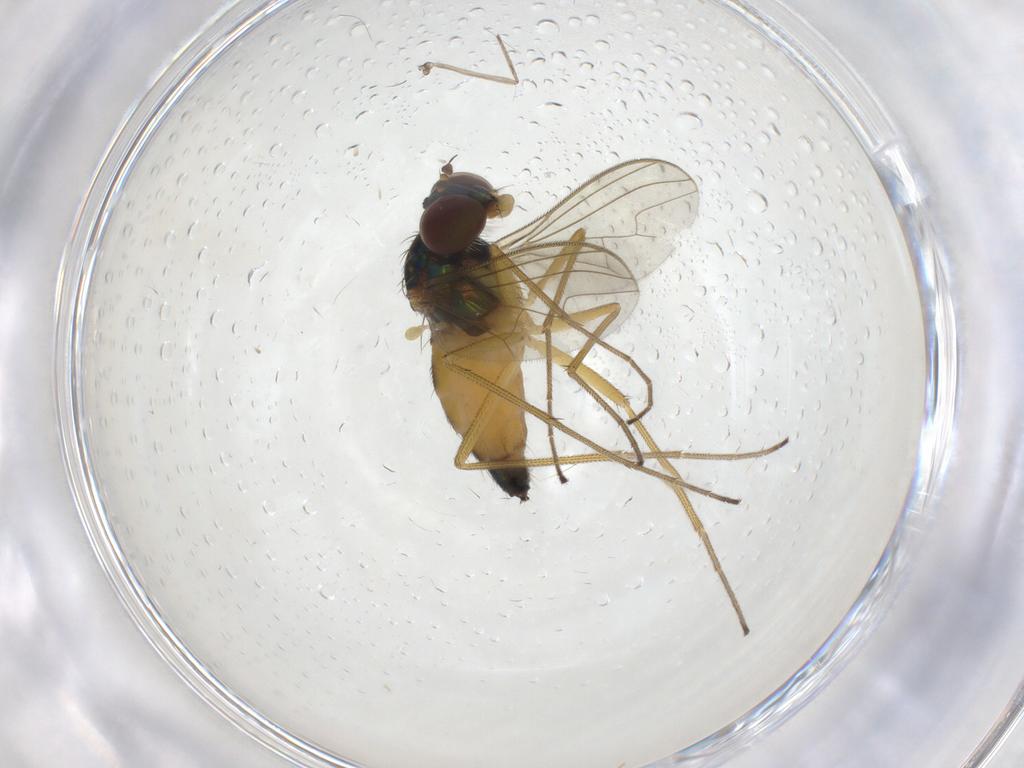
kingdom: Animalia
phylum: Arthropoda
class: Insecta
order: Diptera
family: Dolichopodidae
